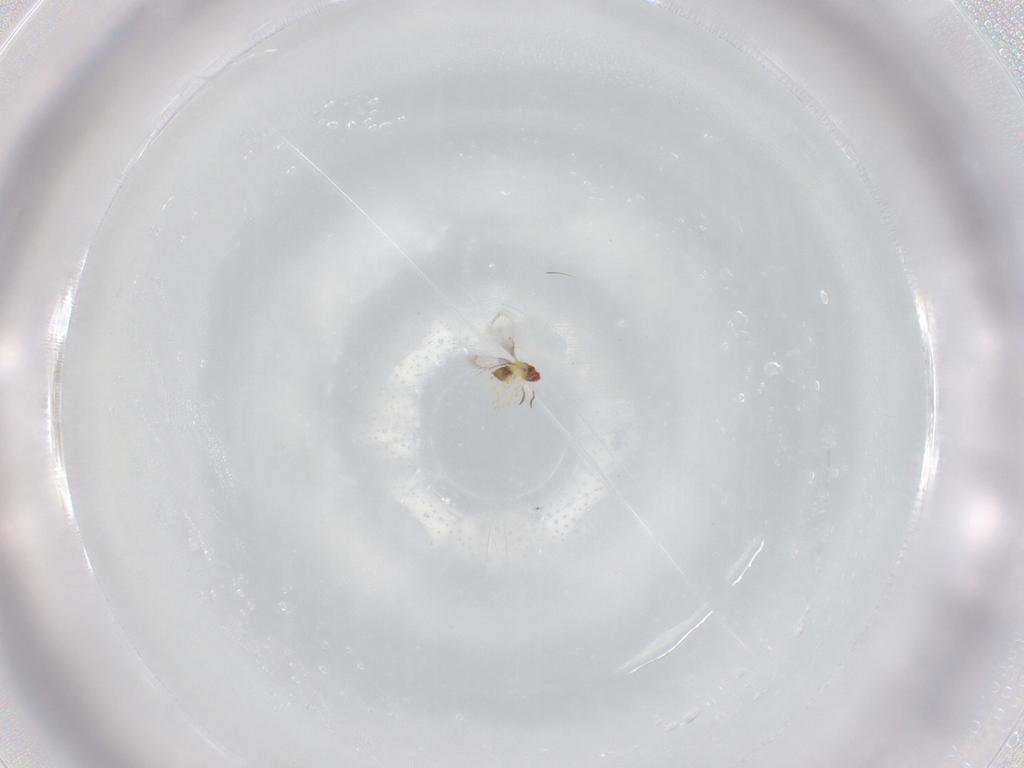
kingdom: Animalia
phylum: Arthropoda
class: Insecta
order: Hymenoptera
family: Trichogrammatidae
